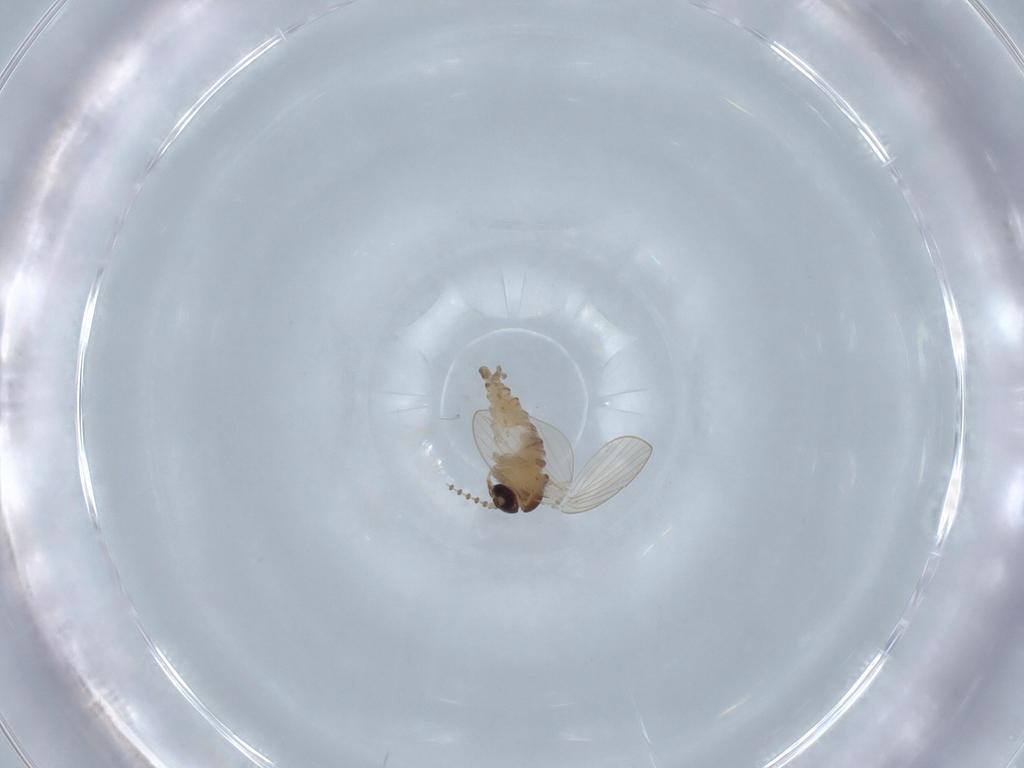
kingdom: Animalia
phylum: Arthropoda
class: Insecta
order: Diptera
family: Psychodidae
